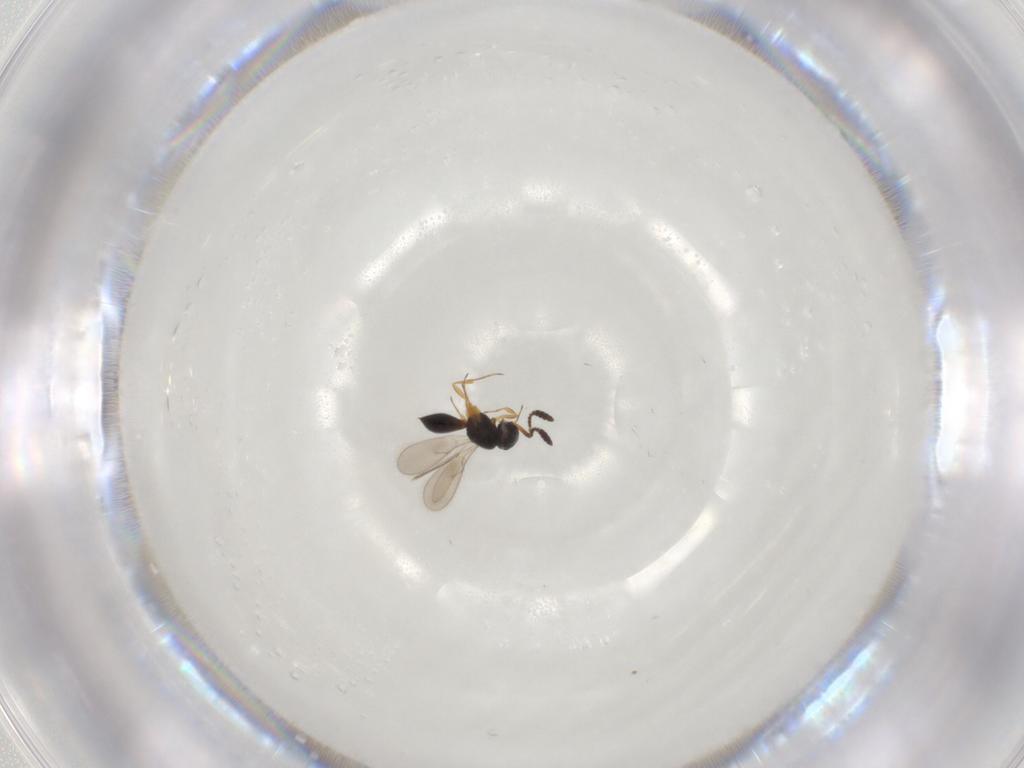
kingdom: Animalia
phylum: Arthropoda
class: Insecta
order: Hymenoptera
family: Scelionidae
